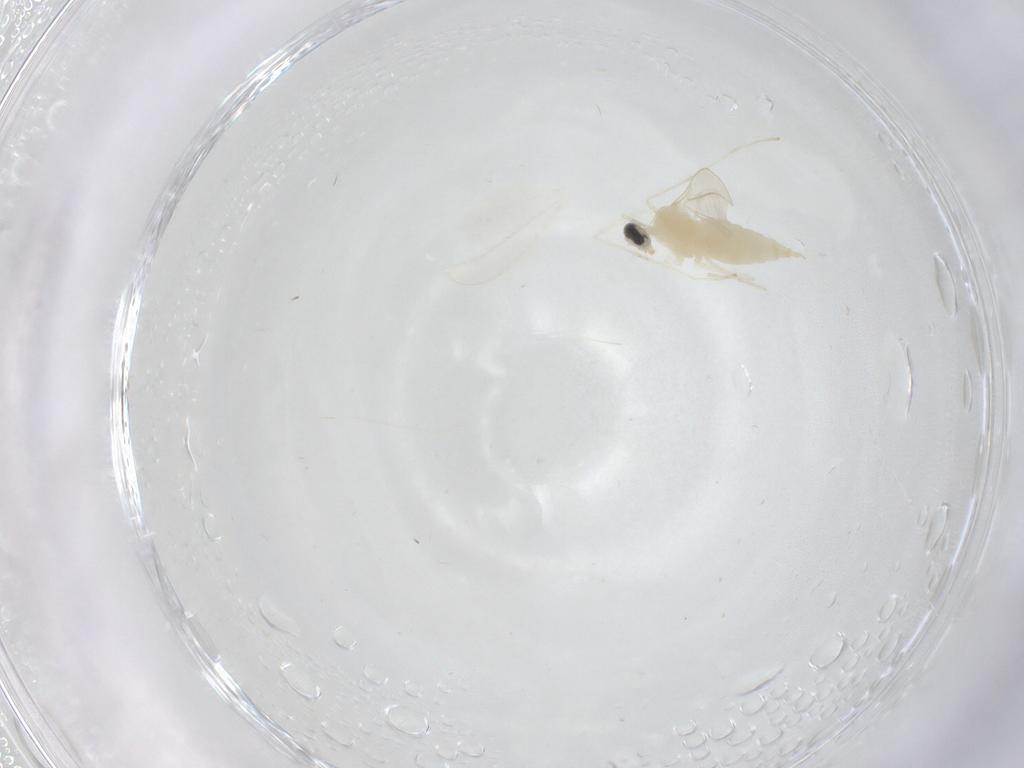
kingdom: Animalia
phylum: Arthropoda
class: Insecta
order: Diptera
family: Cecidomyiidae
